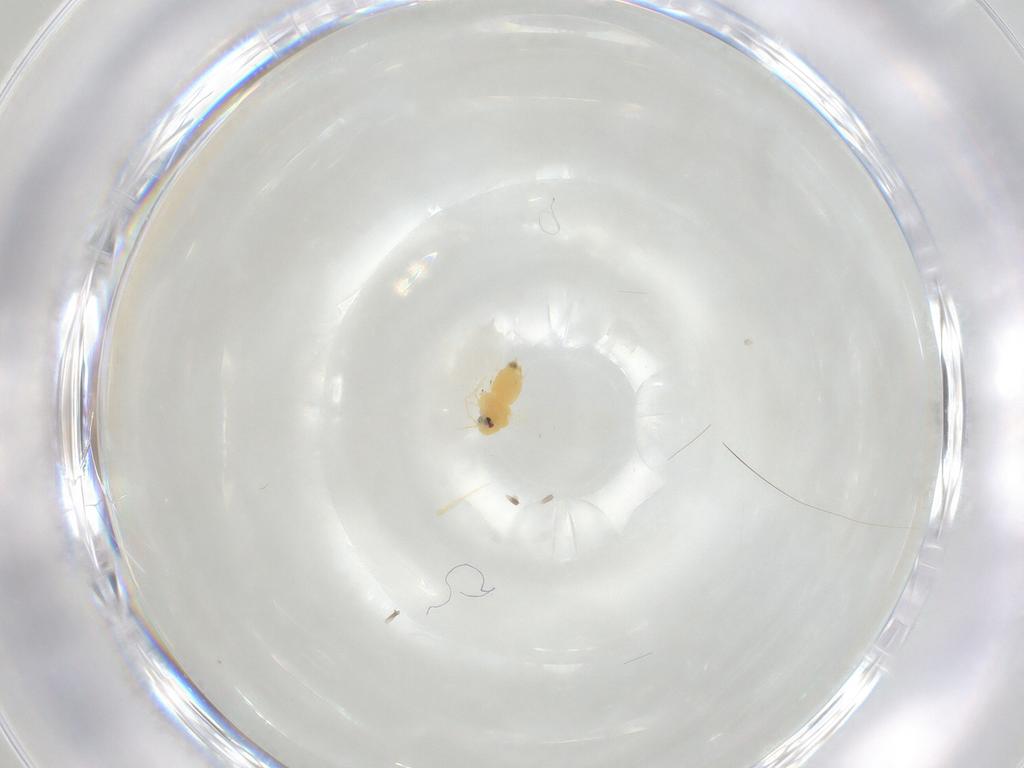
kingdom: Animalia
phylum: Arthropoda
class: Insecta
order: Hemiptera
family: Aleyrodidae
